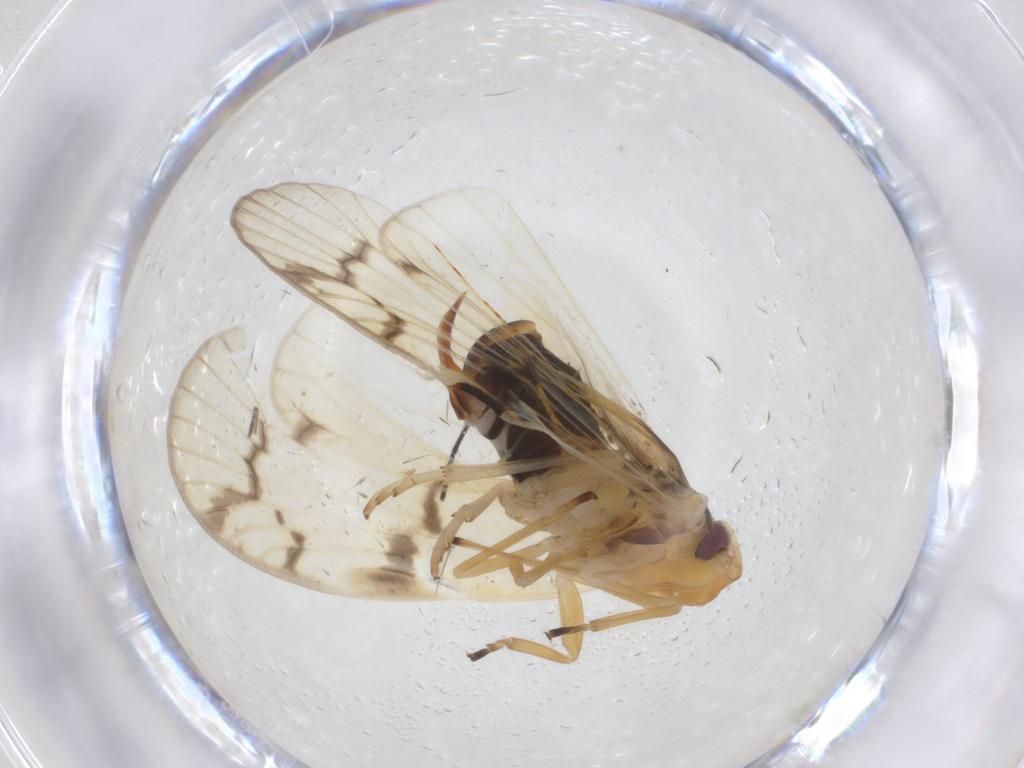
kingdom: Animalia
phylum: Arthropoda
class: Insecta
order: Hemiptera
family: Cixiidae
